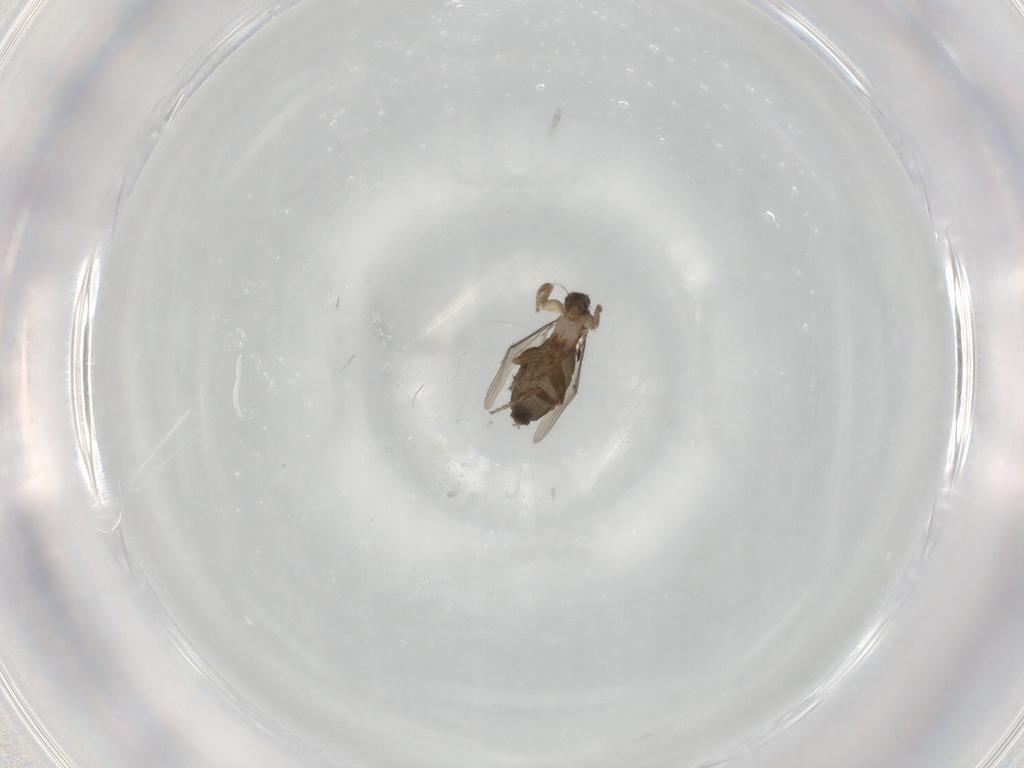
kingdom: Animalia
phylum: Arthropoda
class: Insecta
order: Diptera
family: Phoridae
